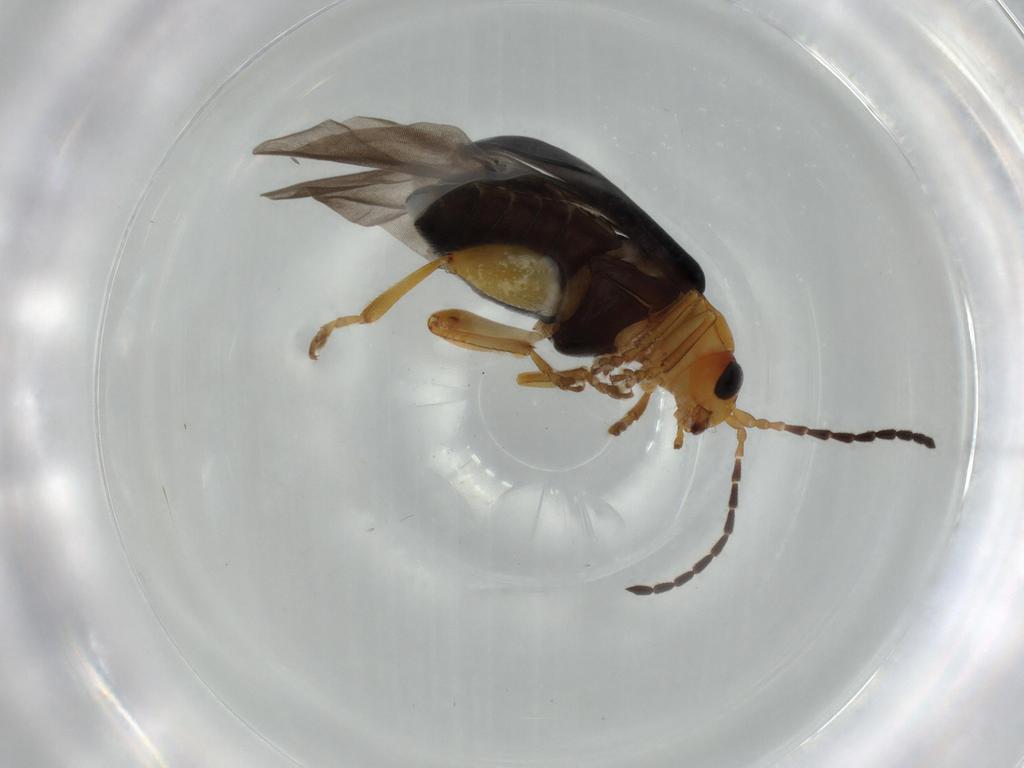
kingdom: Animalia
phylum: Arthropoda
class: Insecta
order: Coleoptera
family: Chrysomelidae
